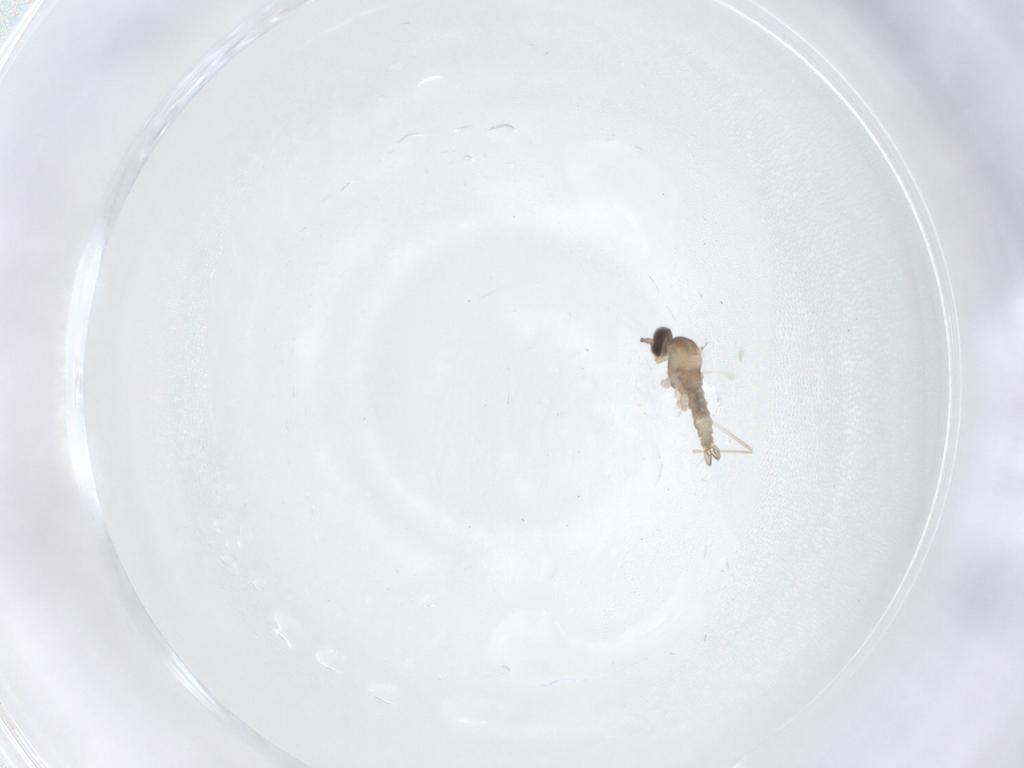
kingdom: Animalia
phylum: Arthropoda
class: Insecta
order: Diptera
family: Cecidomyiidae
